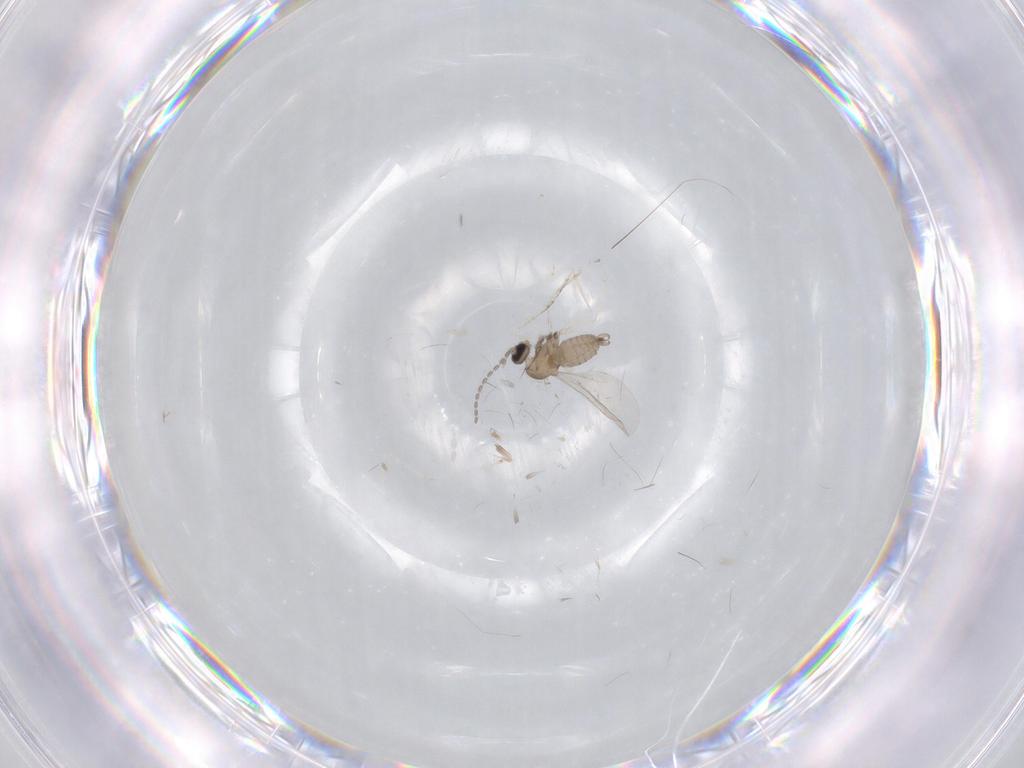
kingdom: Animalia
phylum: Arthropoda
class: Insecta
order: Diptera
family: Cecidomyiidae
